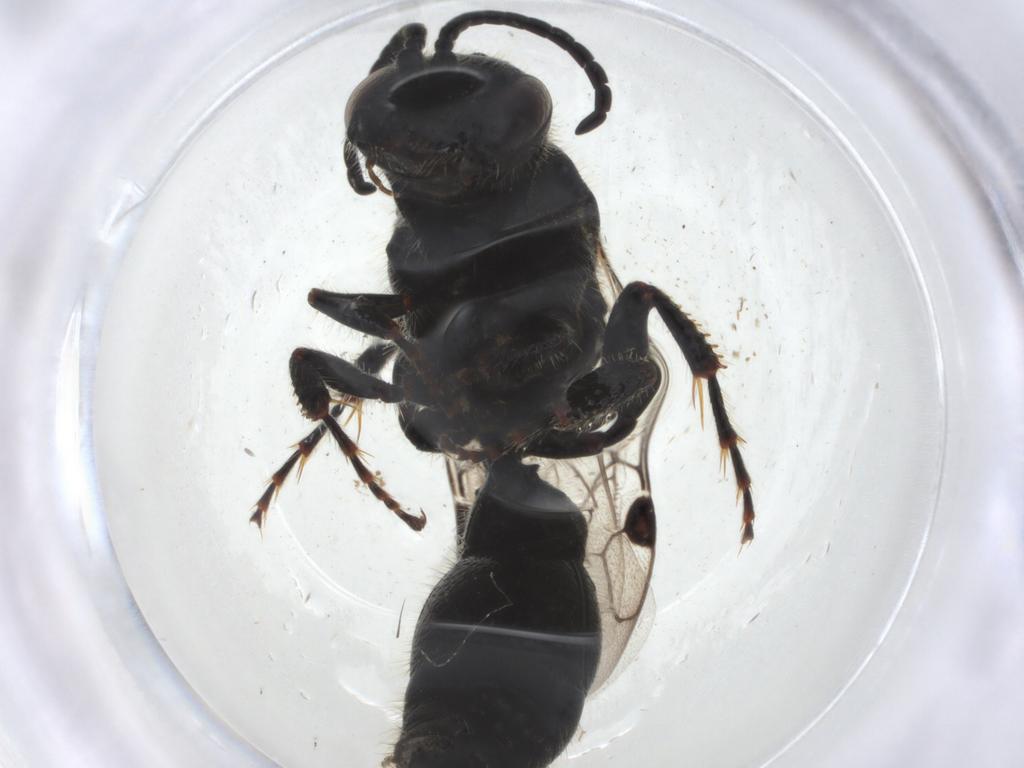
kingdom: Animalia
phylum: Arthropoda
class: Insecta
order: Hymenoptera
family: Tiphiidae
